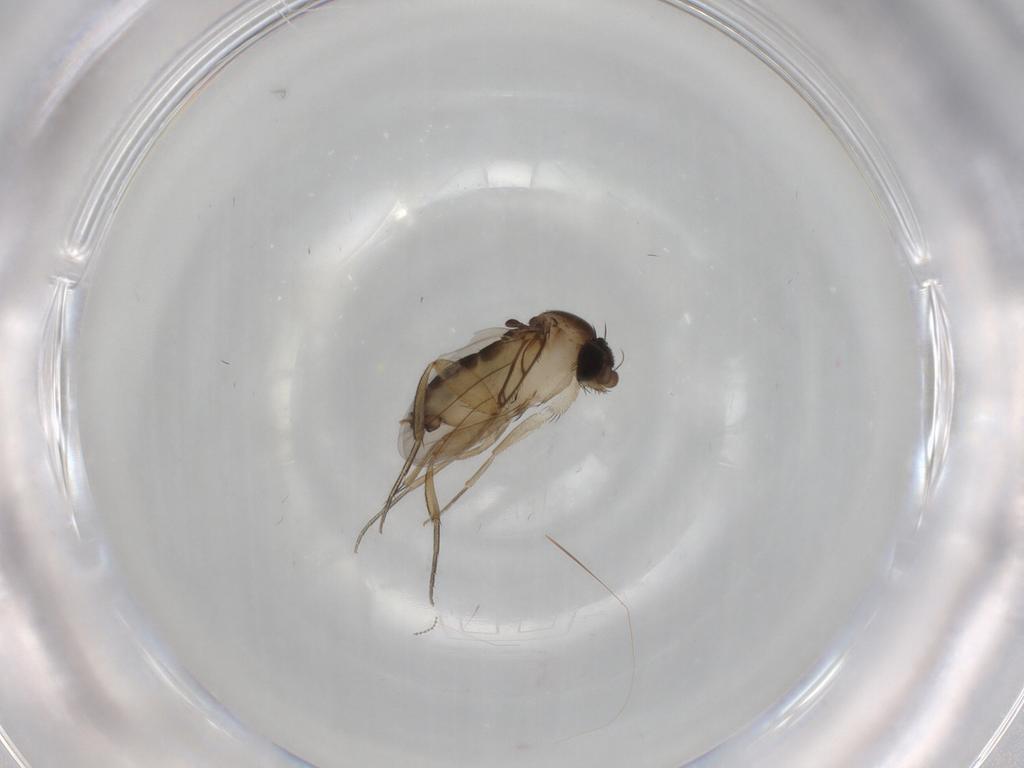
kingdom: Animalia
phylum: Arthropoda
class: Insecta
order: Diptera
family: Phoridae
